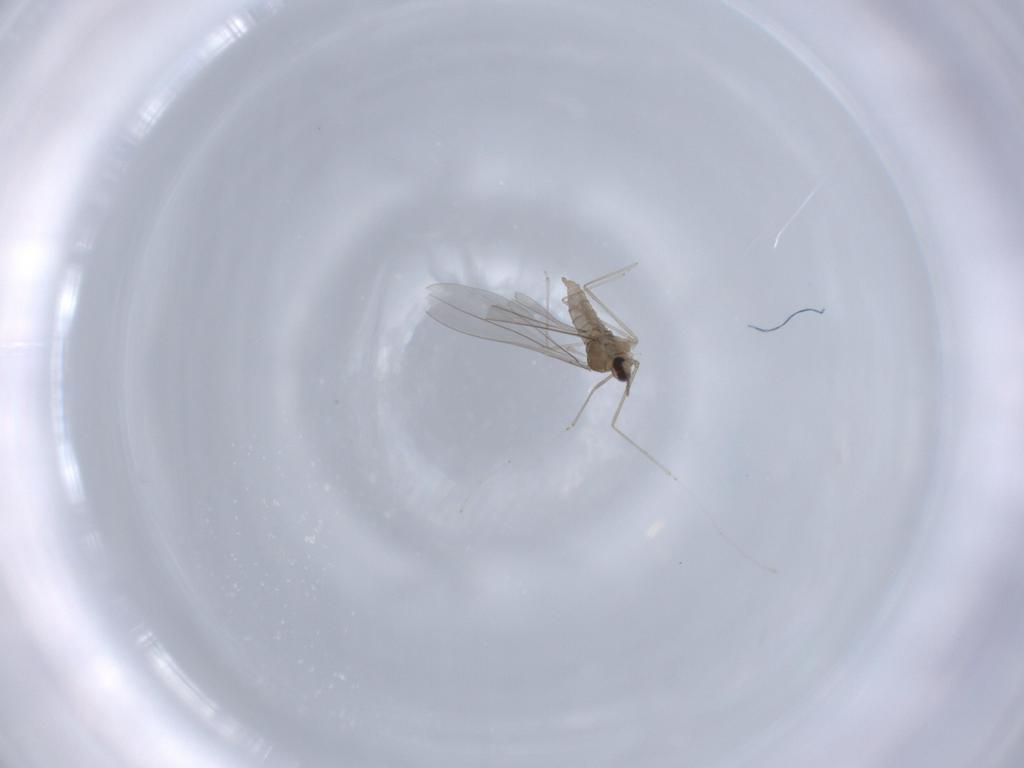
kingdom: Animalia
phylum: Arthropoda
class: Insecta
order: Diptera
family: Cecidomyiidae
